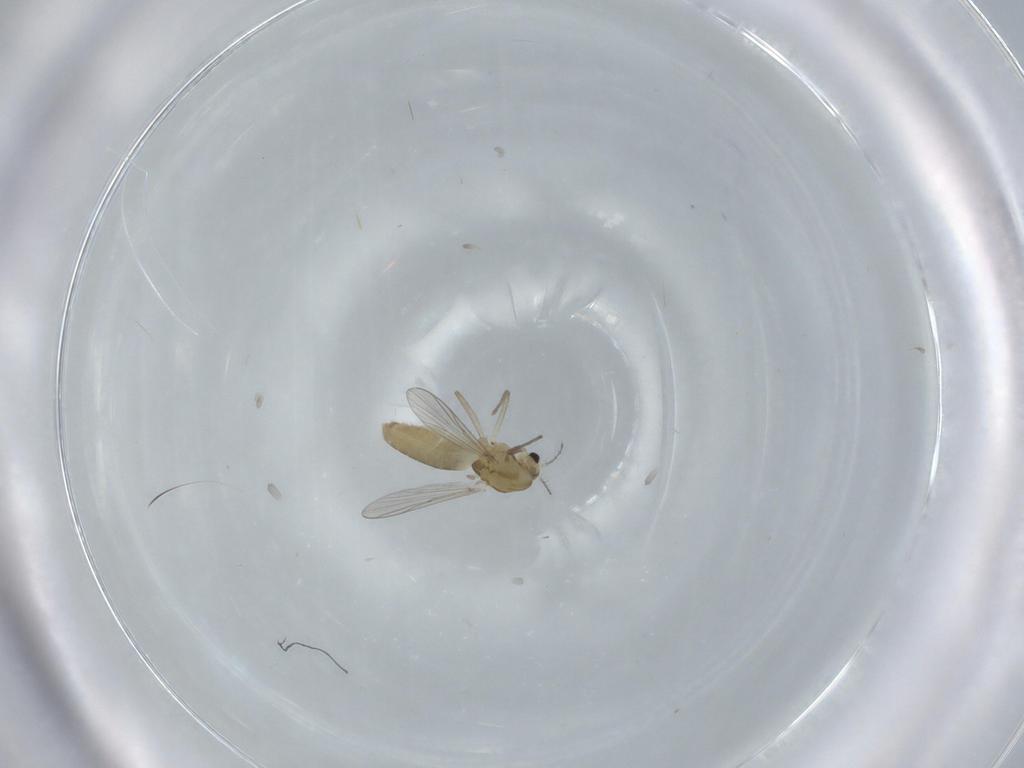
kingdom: Animalia
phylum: Arthropoda
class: Insecta
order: Diptera
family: Chironomidae
